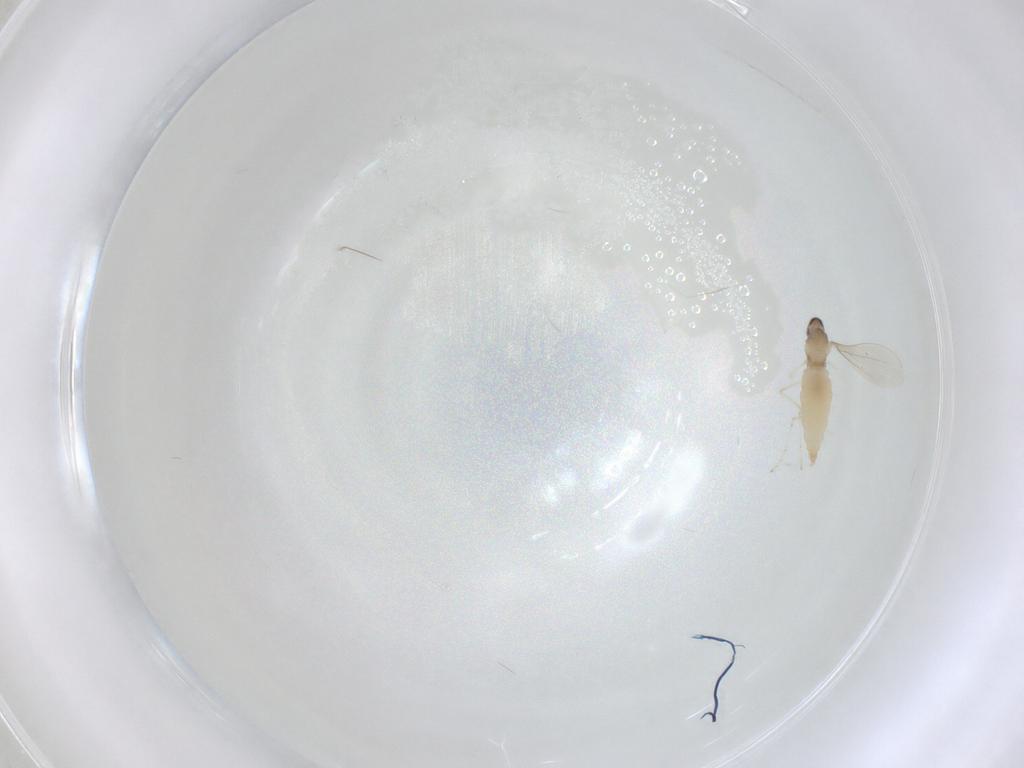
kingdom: Animalia
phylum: Arthropoda
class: Insecta
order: Diptera
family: Cecidomyiidae
